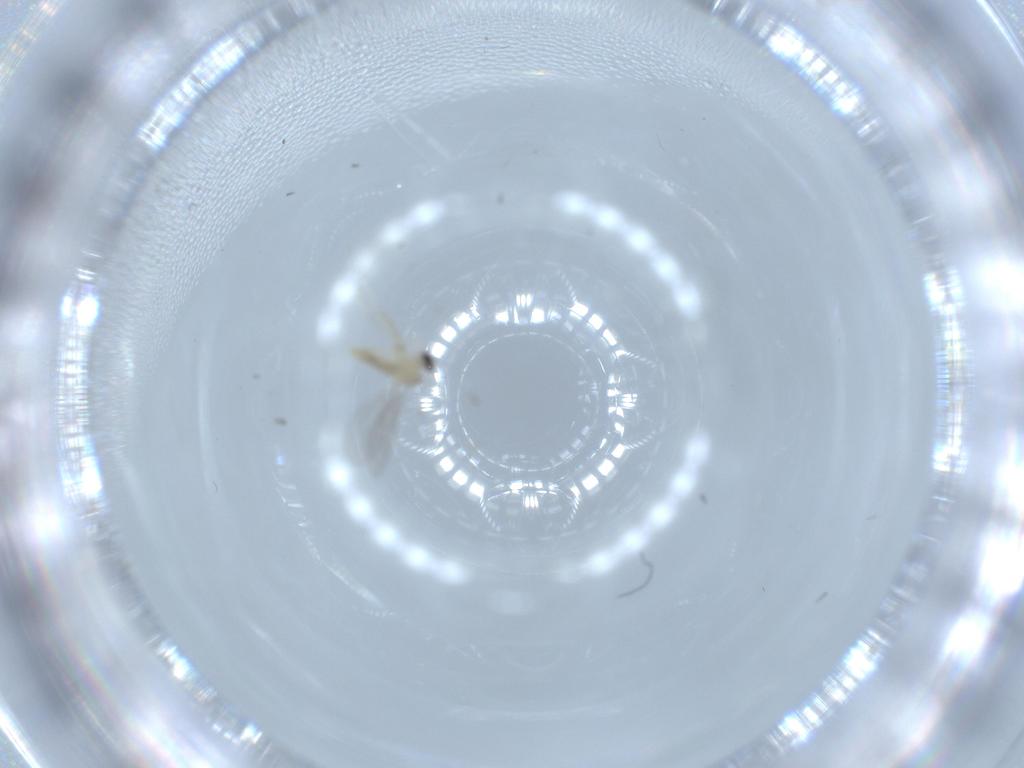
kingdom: Animalia
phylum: Arthropoda
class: Insecta
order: Diptera
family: Cecidomyiidae
